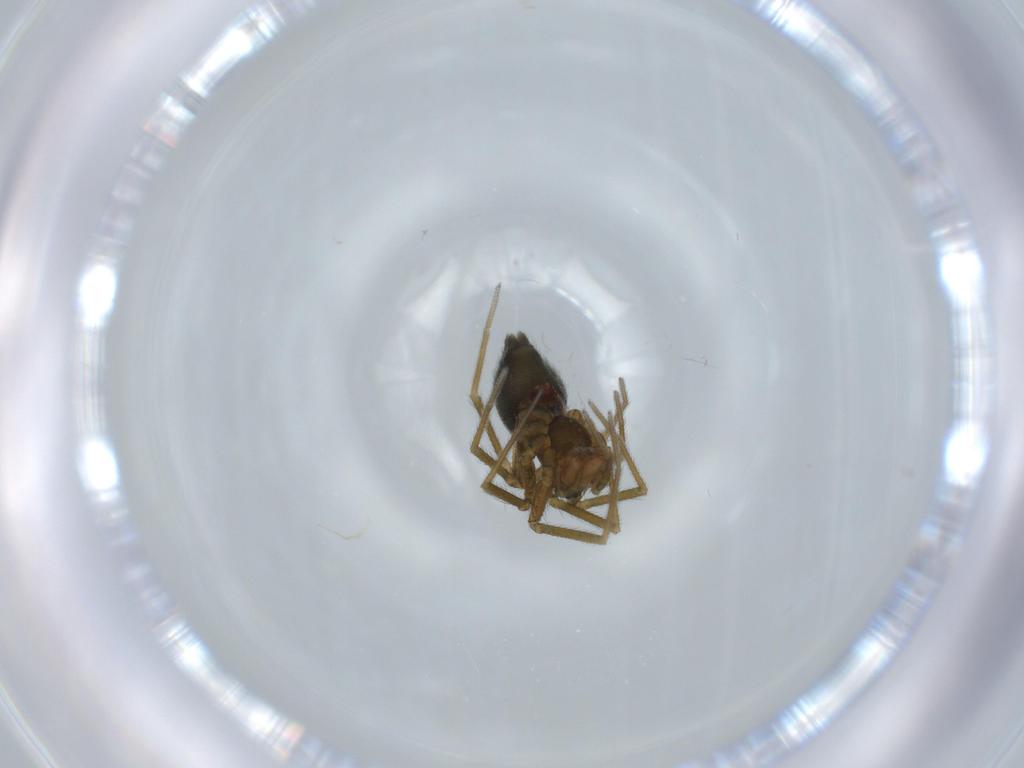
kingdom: Animalia
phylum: Arthropoda
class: Arachnida
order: Araneae
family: Linyphiidae
